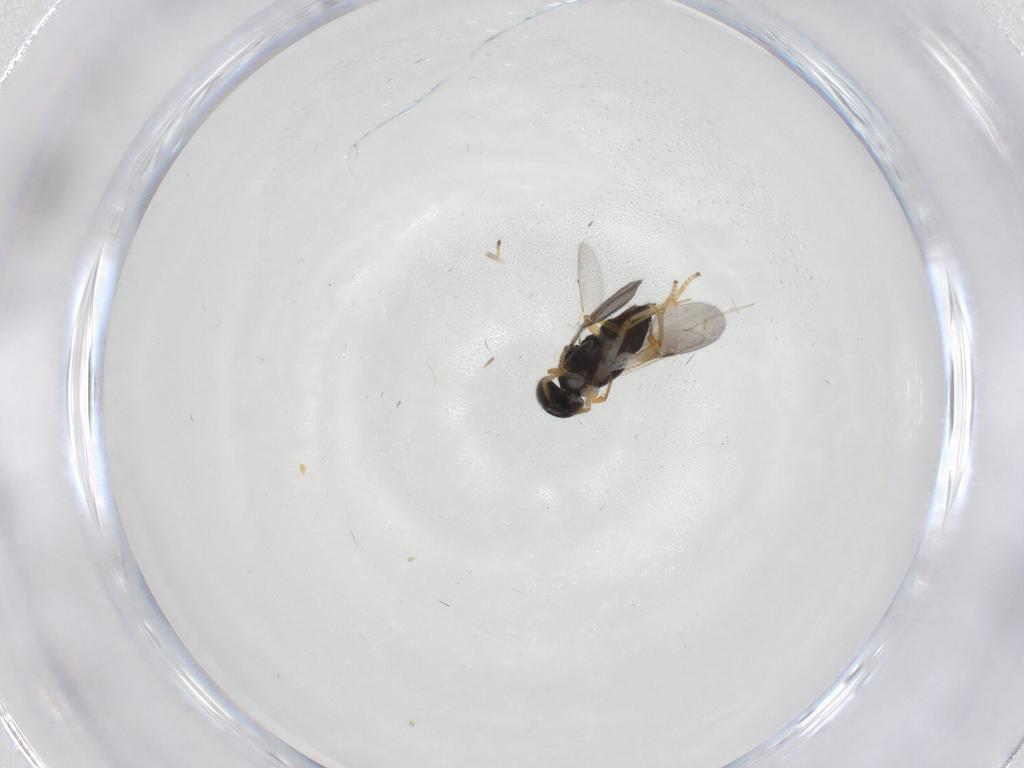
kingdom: Animalia
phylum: Arthropoda
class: Insecta
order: Hymenoptera
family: Encyrtidae
